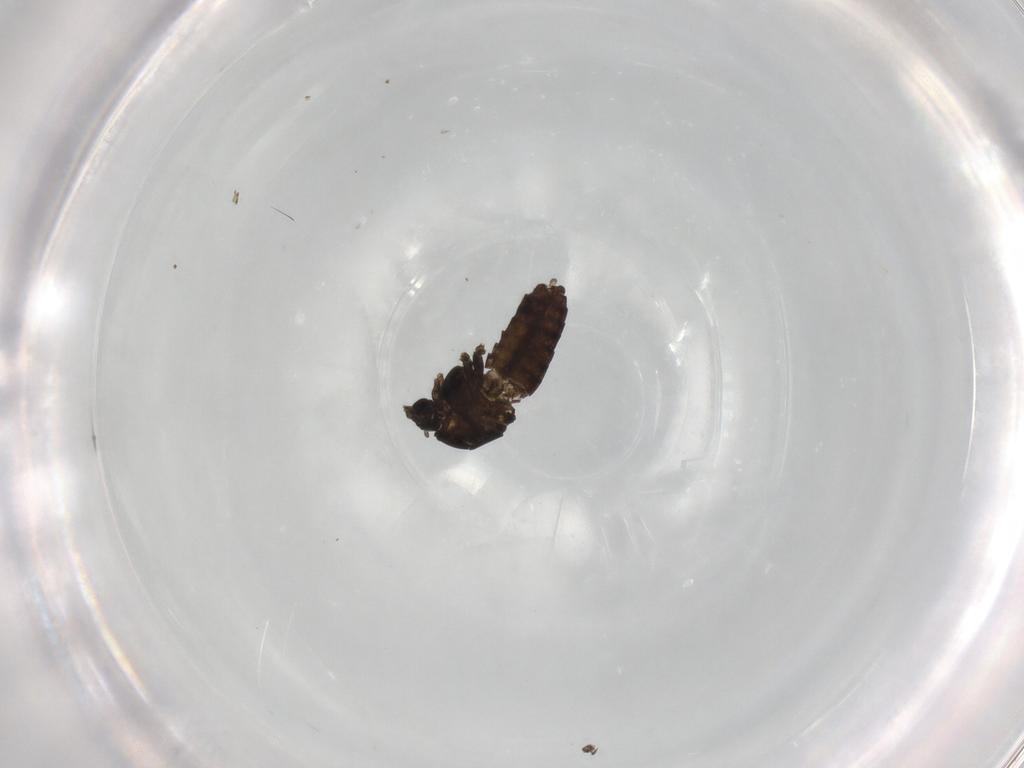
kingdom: Animalia
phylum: Arthropoda
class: Insecta
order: Diptera
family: Chironomidae
